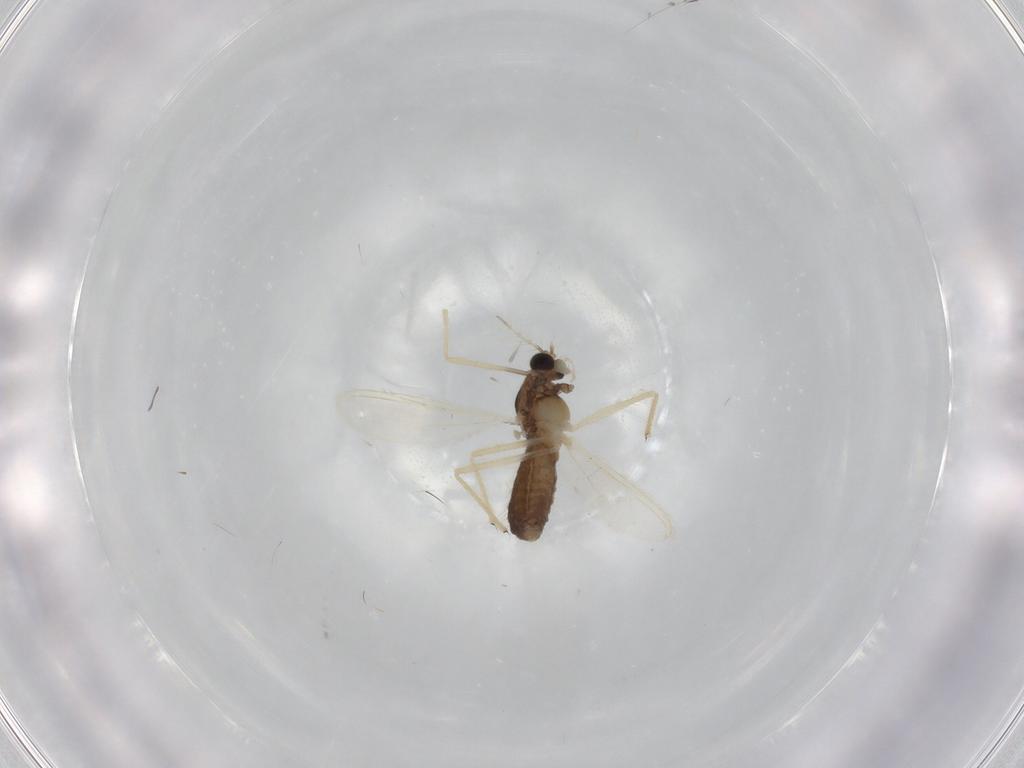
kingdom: Animalia
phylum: Arthropoda
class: Insecta
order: Diptera
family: Chironomidae
